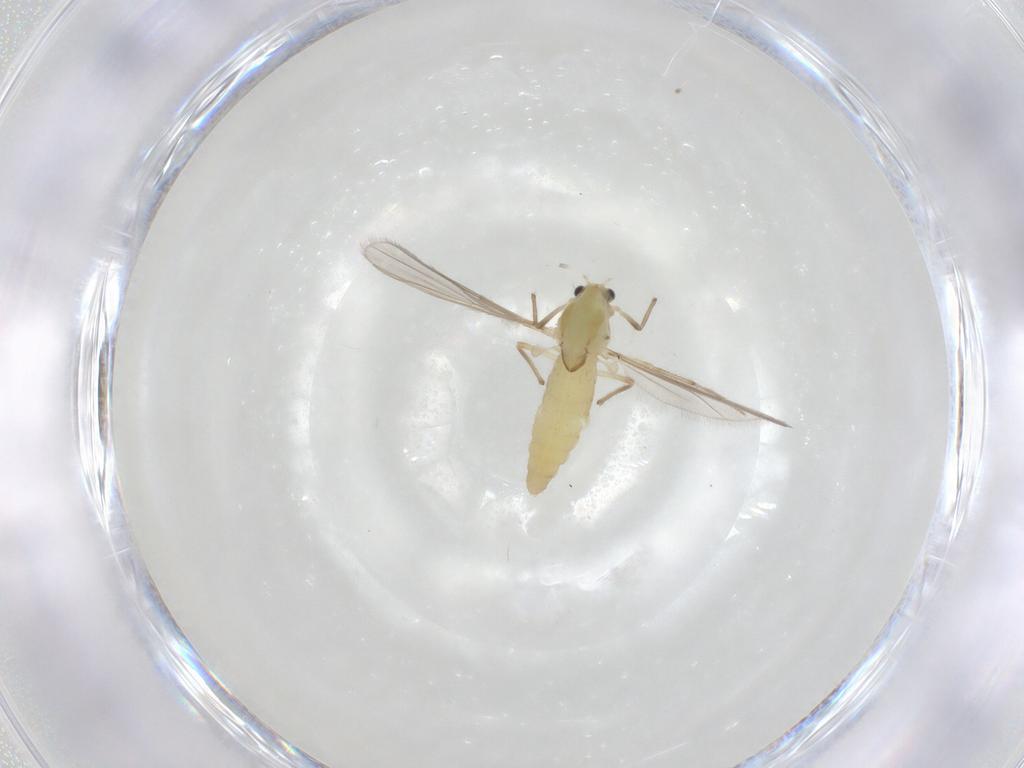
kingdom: Animalia
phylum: Arthropoda
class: Insecta
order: Diptera
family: Chironomidae
